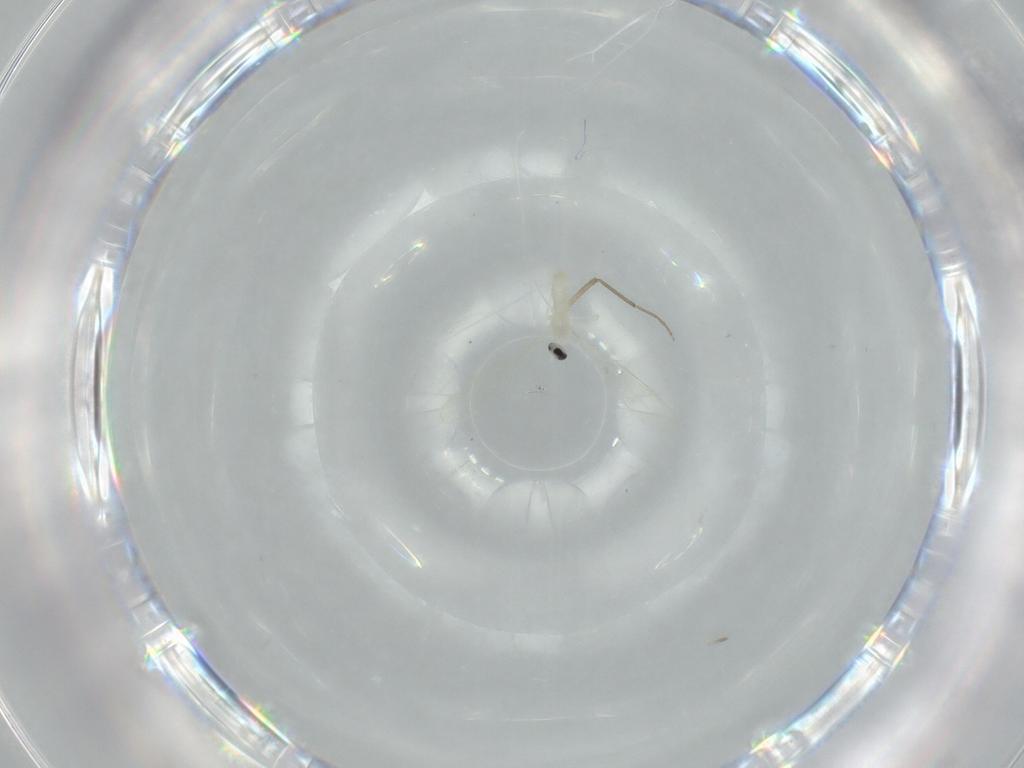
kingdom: Animalia
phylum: Arthropoda
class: Insecta
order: Diptera
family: Cecidomyiidae
